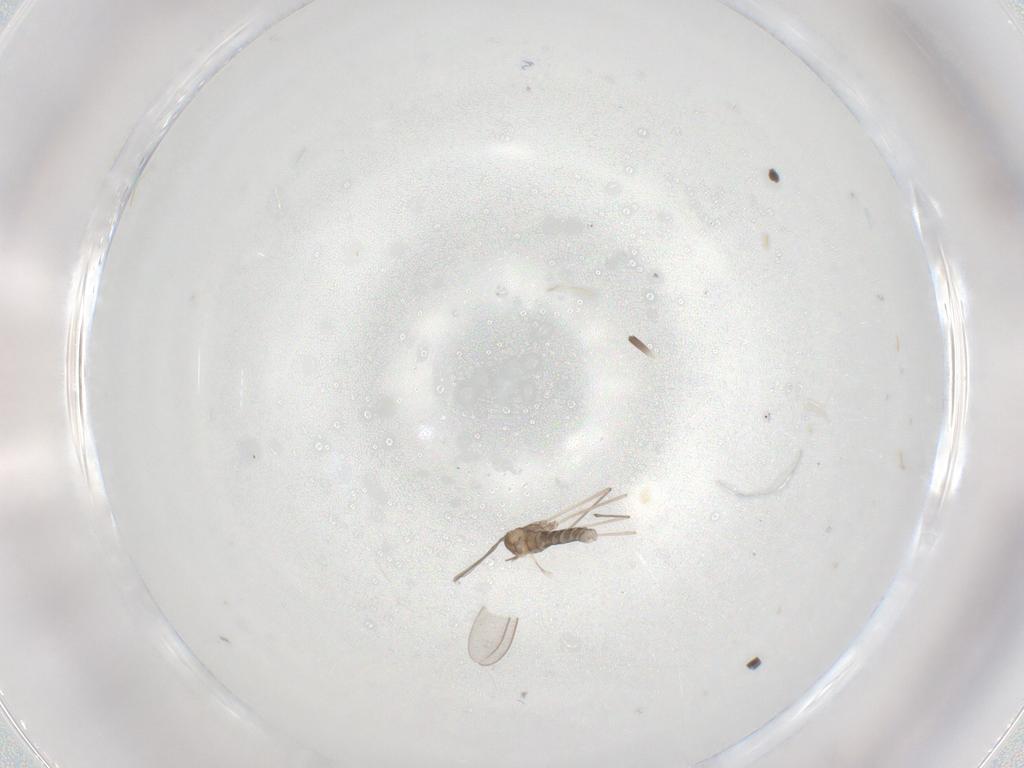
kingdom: Animalia
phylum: Arthropoda
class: Insecta
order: Diptera
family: Cecidomyiidae
